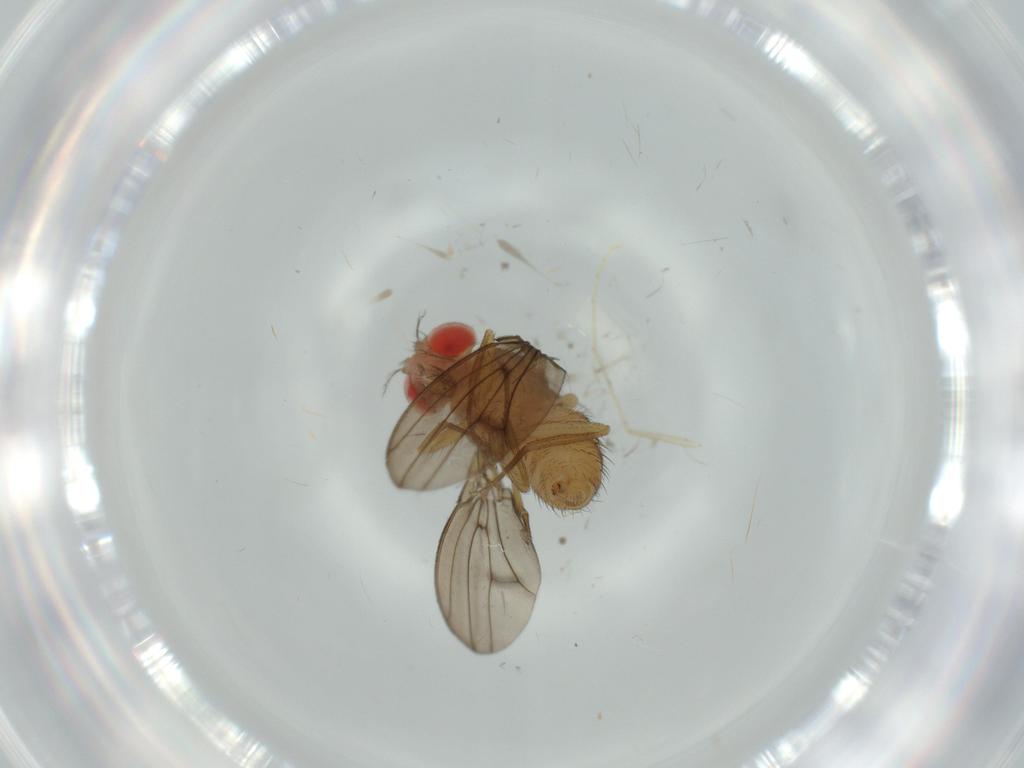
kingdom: Animalia
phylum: Arthropoda
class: Insecta
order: Diptera
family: Drosophilidae
